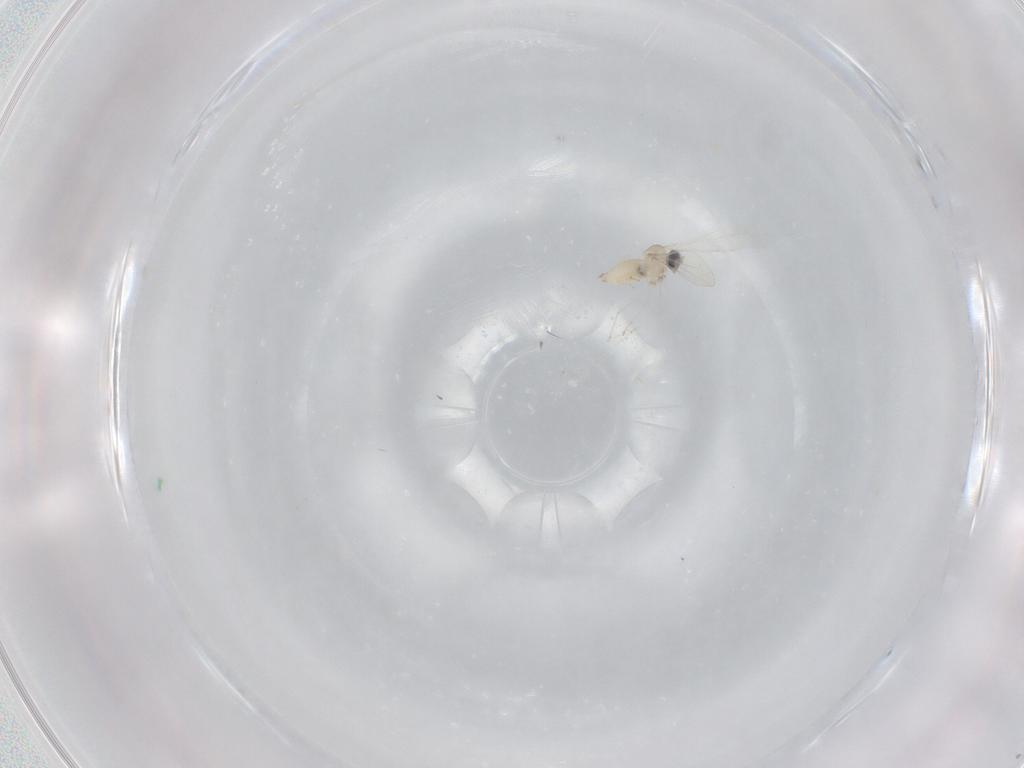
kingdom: Animalia
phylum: Arthropoda
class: Insecta
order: Diptera
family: Cecidomyiidae
